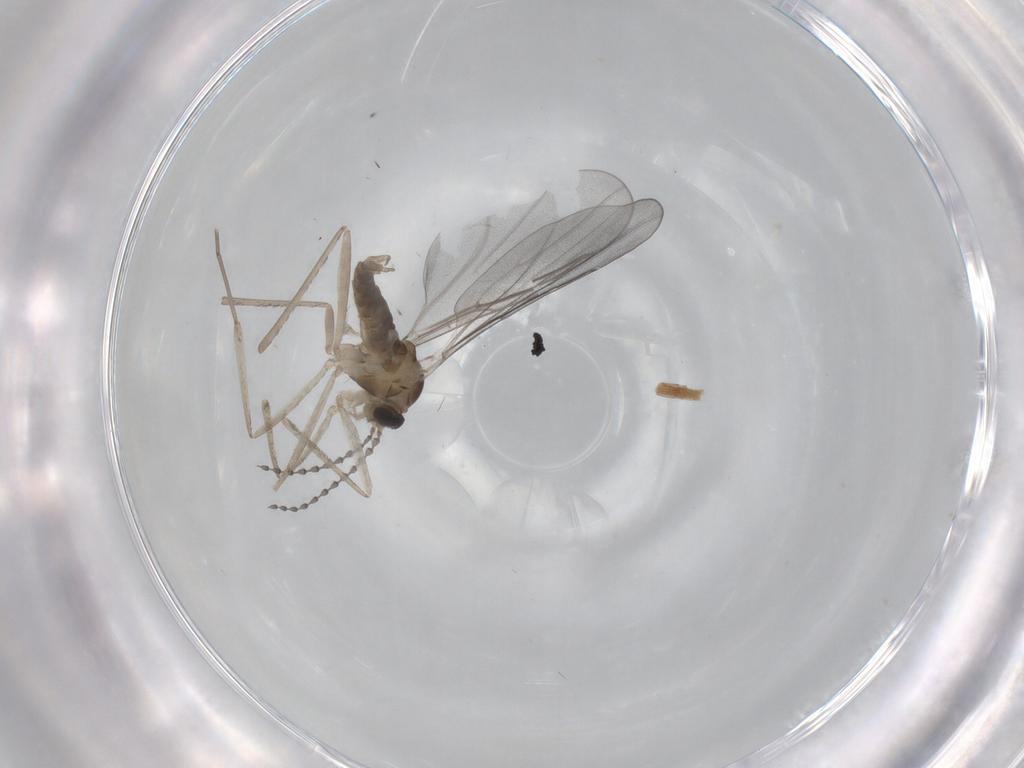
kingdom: Animalia
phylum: Arthropoda
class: Insecta
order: Diptera
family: Cecidomyiidae
